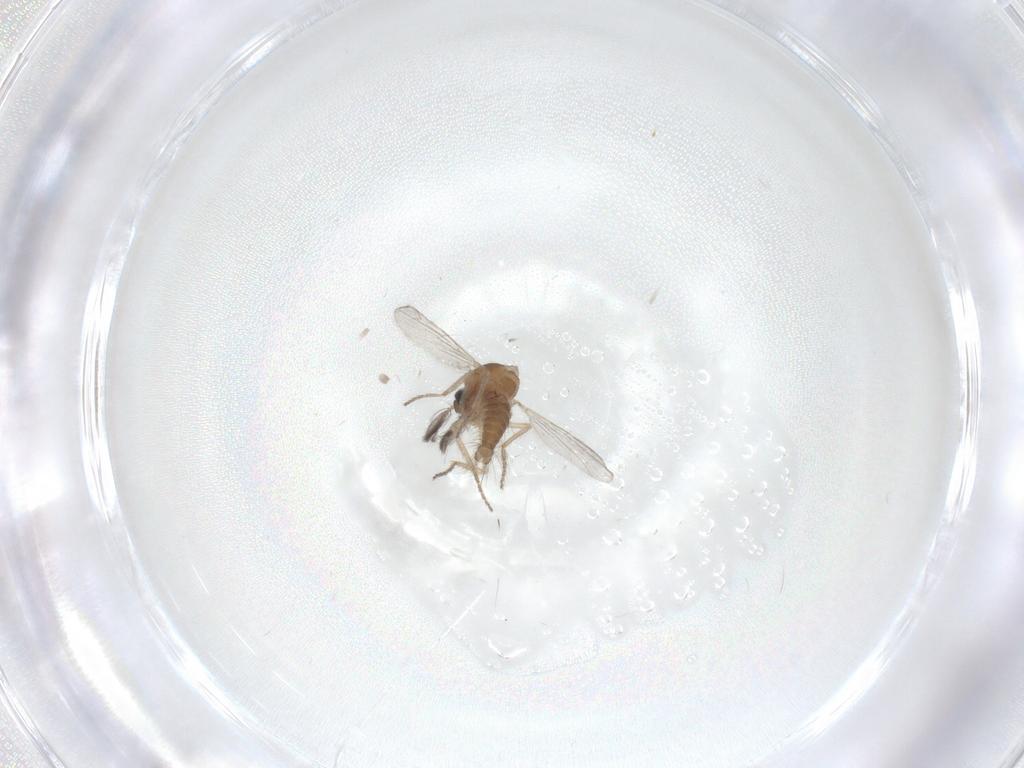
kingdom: Animalia
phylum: Arthropoda
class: Insecta
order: Diptera
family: Ceratopogonidae
